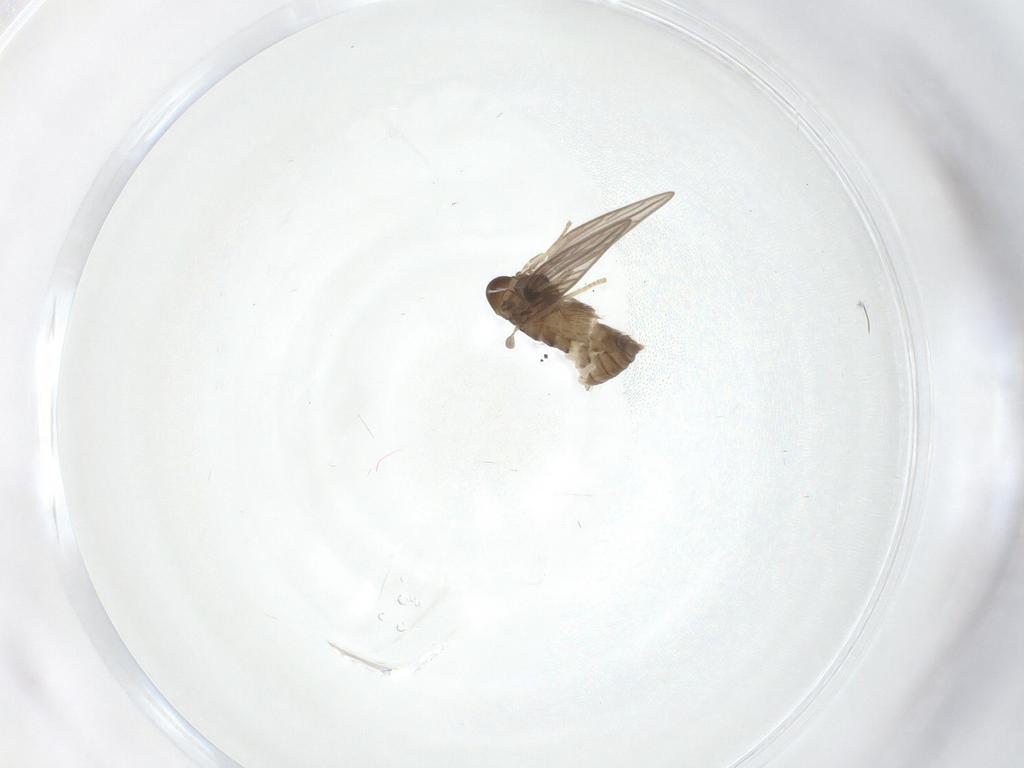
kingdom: Animalia
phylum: Arthropoda
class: Insecta
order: Diptera
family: Psychodidae
